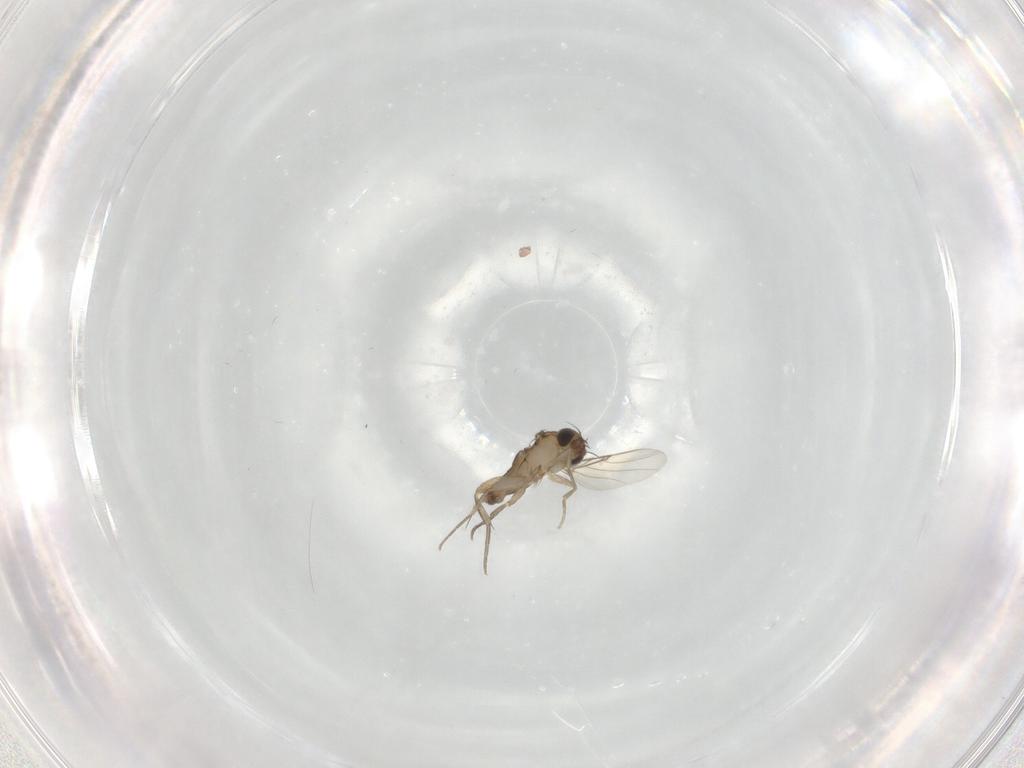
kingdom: Animalia
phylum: Arthropoda
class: Insecta
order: Diptera
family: Phoridae
